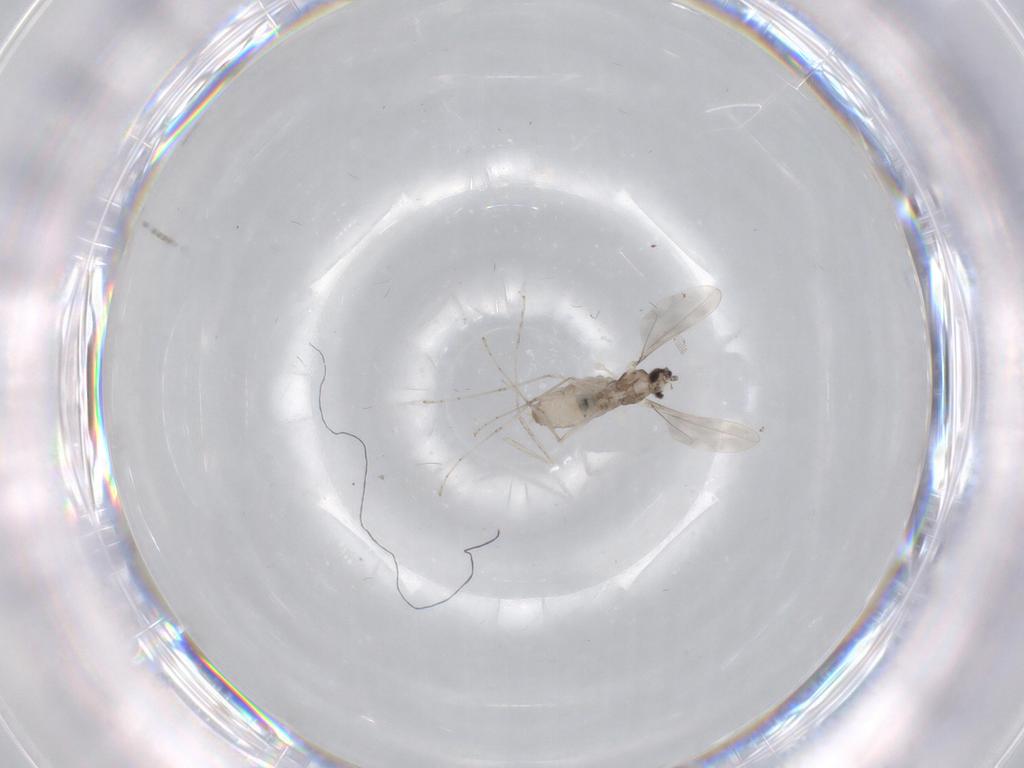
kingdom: Animalia
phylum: Arthropoda
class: Insecta
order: Diptera
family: Cecidomyiidae
